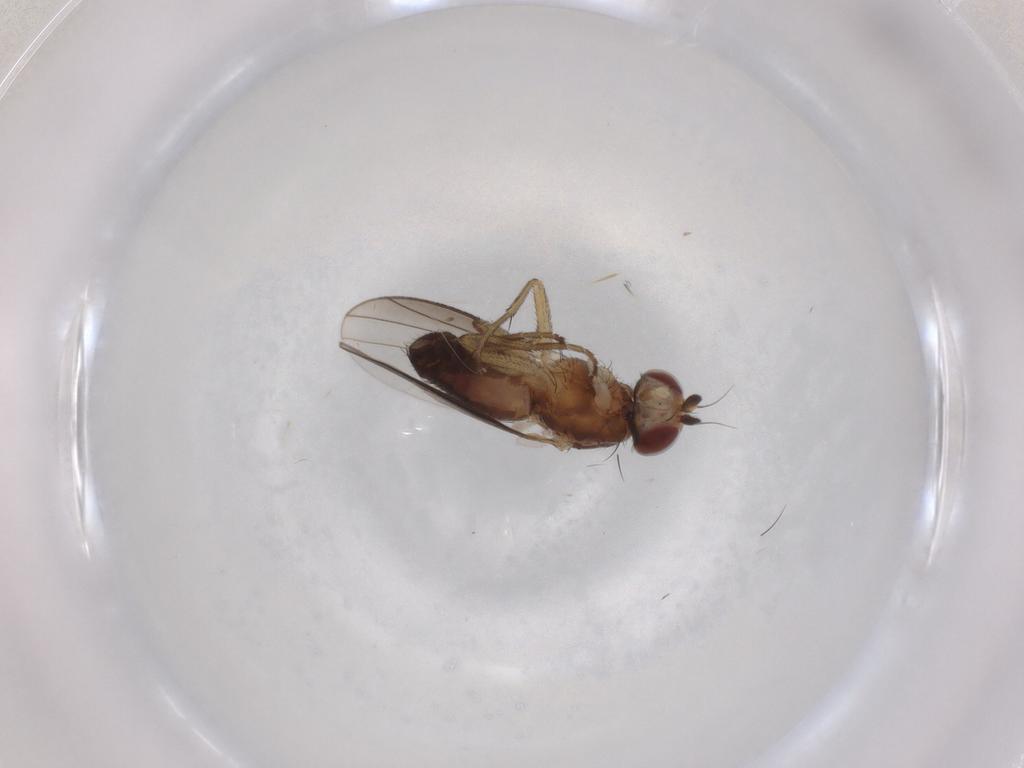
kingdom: Animalia
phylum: Arthropoda
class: Insecta
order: Diptera
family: Heleomyzidae
